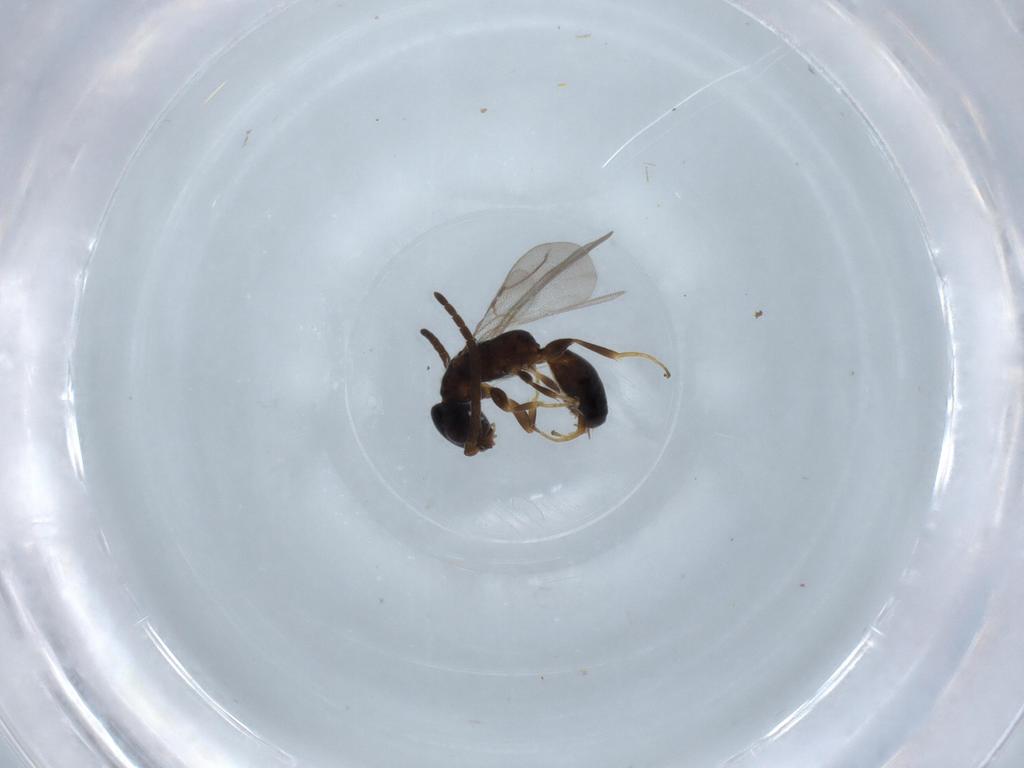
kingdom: Animalia
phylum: Arthropoda
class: Insecta
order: Hymenoptera
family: Bethylidae
